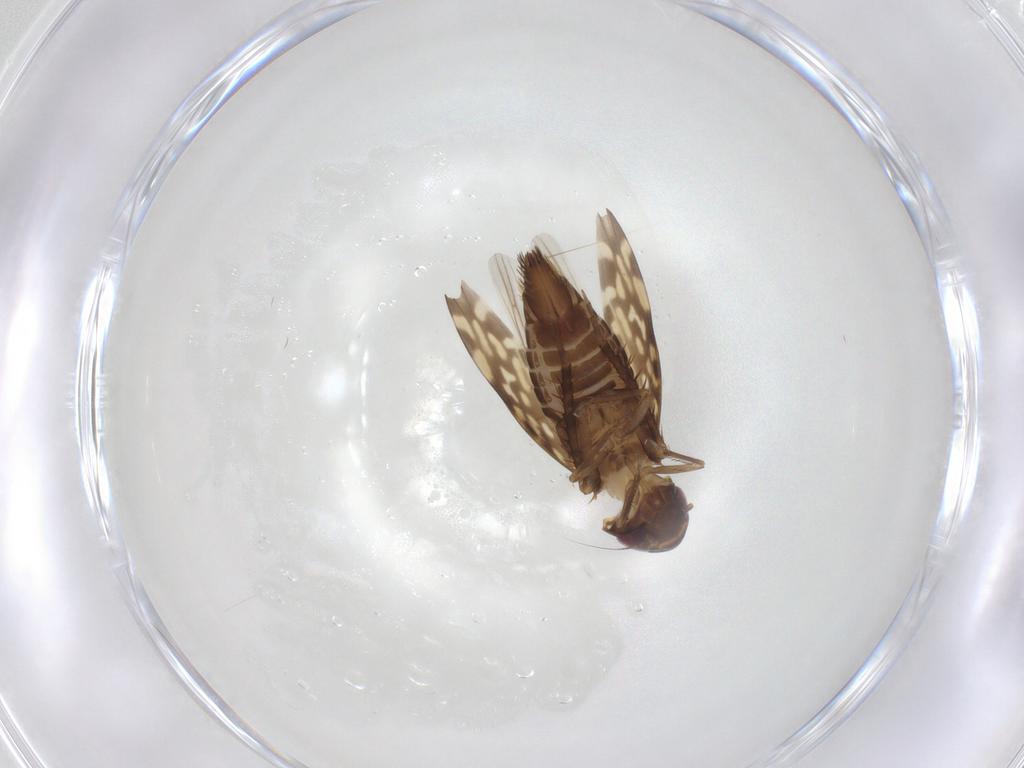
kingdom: Animalia
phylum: Arthropoda
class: Insecta
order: Hemiptera
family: Cicadellidae
